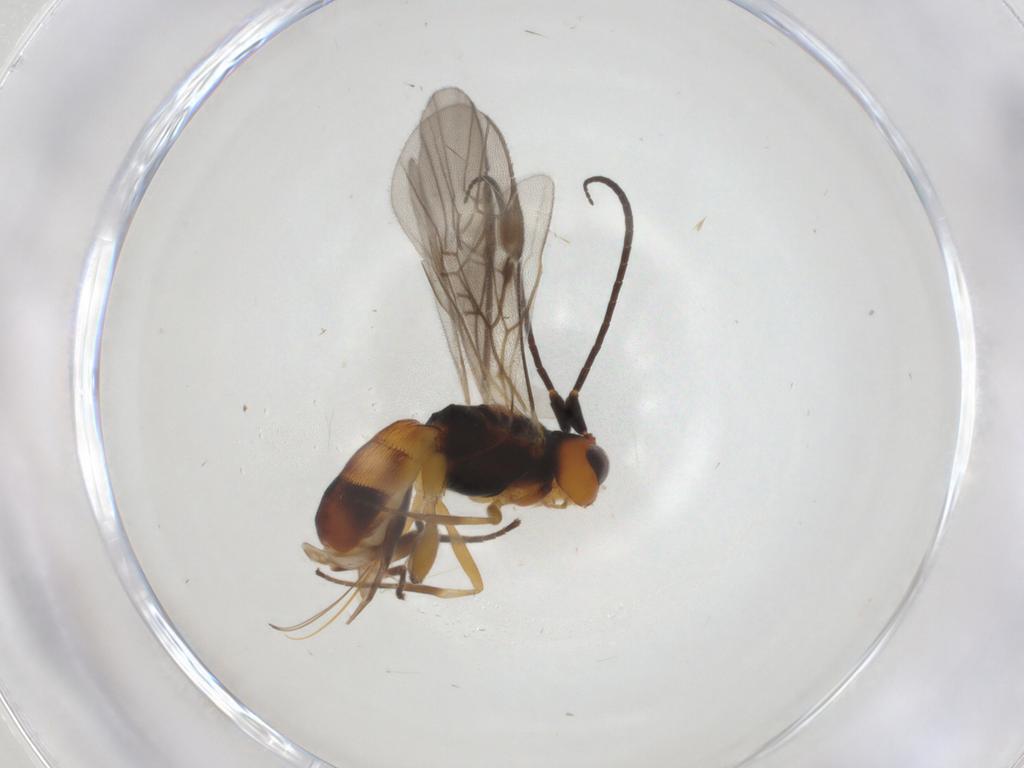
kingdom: Animalia
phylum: Arthropoda
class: Insecta
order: Hymenoptera
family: Braconidae
